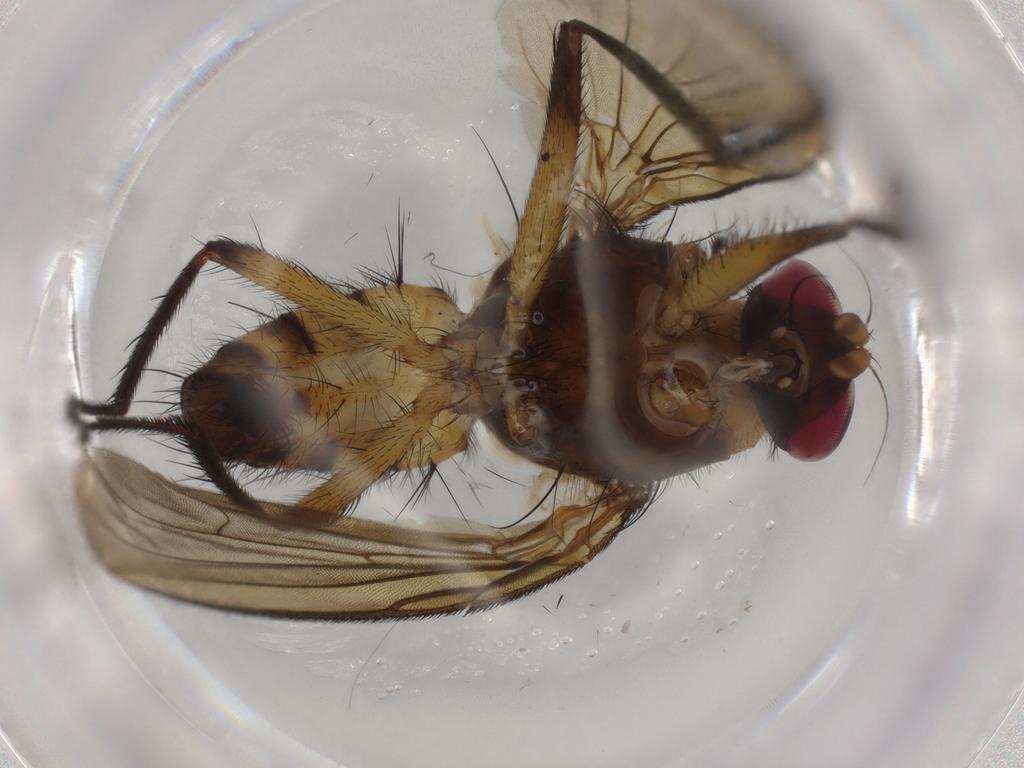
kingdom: Animalia
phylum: Arthropoda
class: Insecta
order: Diptera
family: Anthomyiidae
